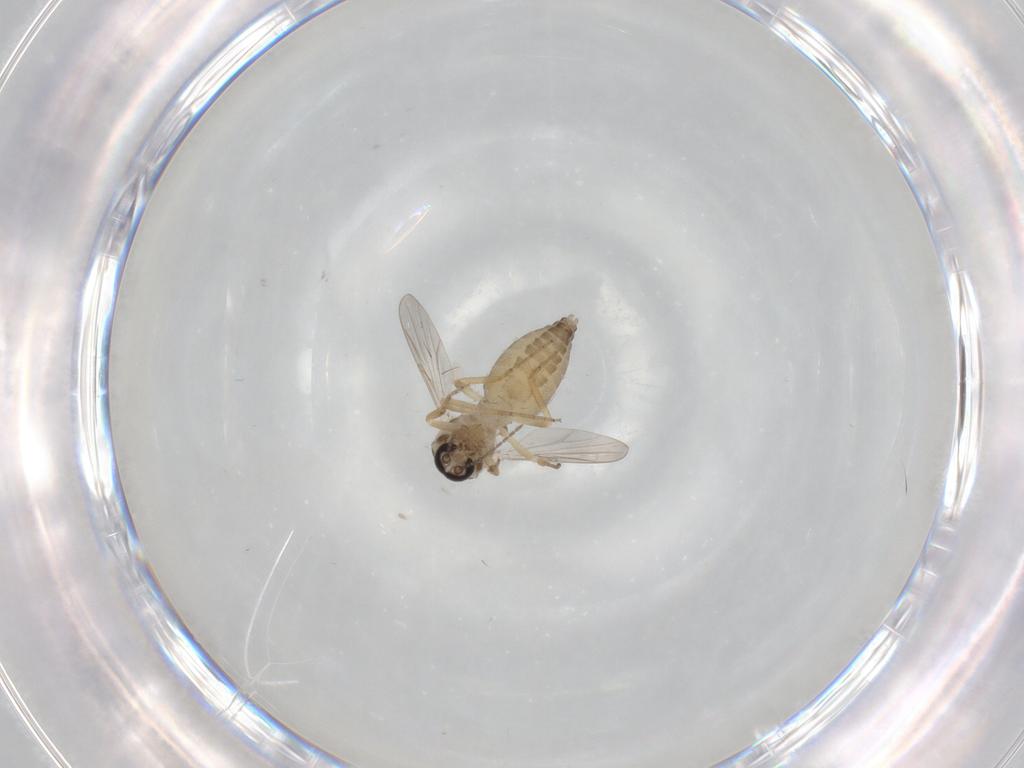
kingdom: Animalia
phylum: Arthropoda
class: Insecta
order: Diptera
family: Ceratopogonidae
